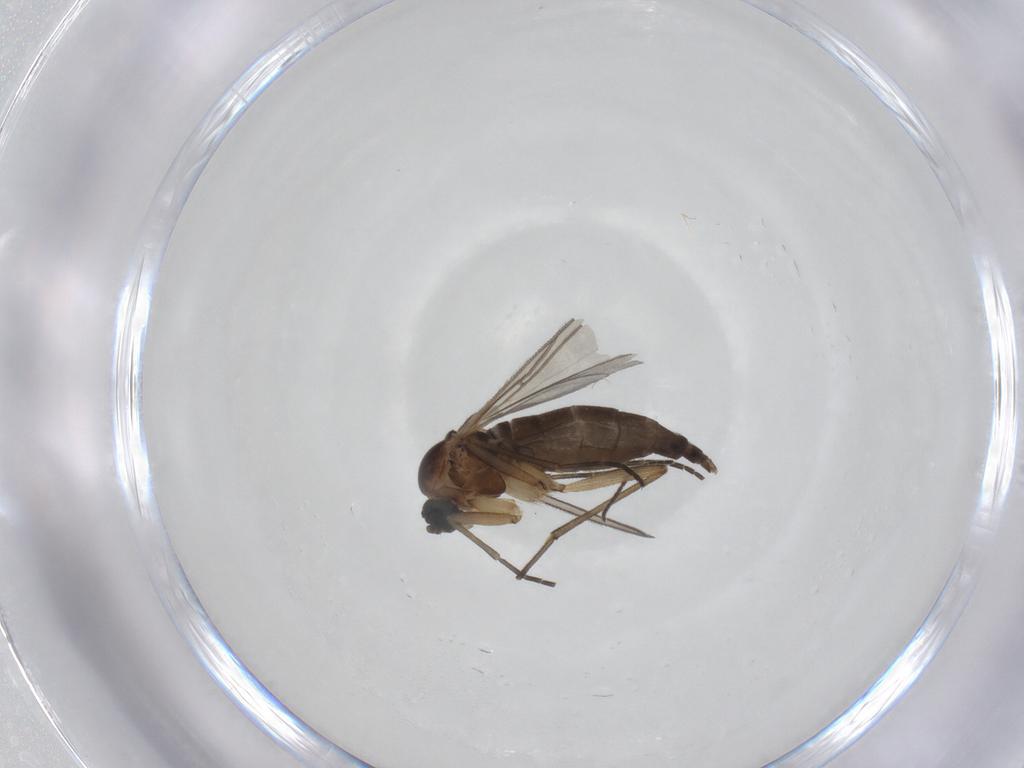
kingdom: Animalia
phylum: Arthropoda
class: Insecta
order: Diptera
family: Sciaridae
